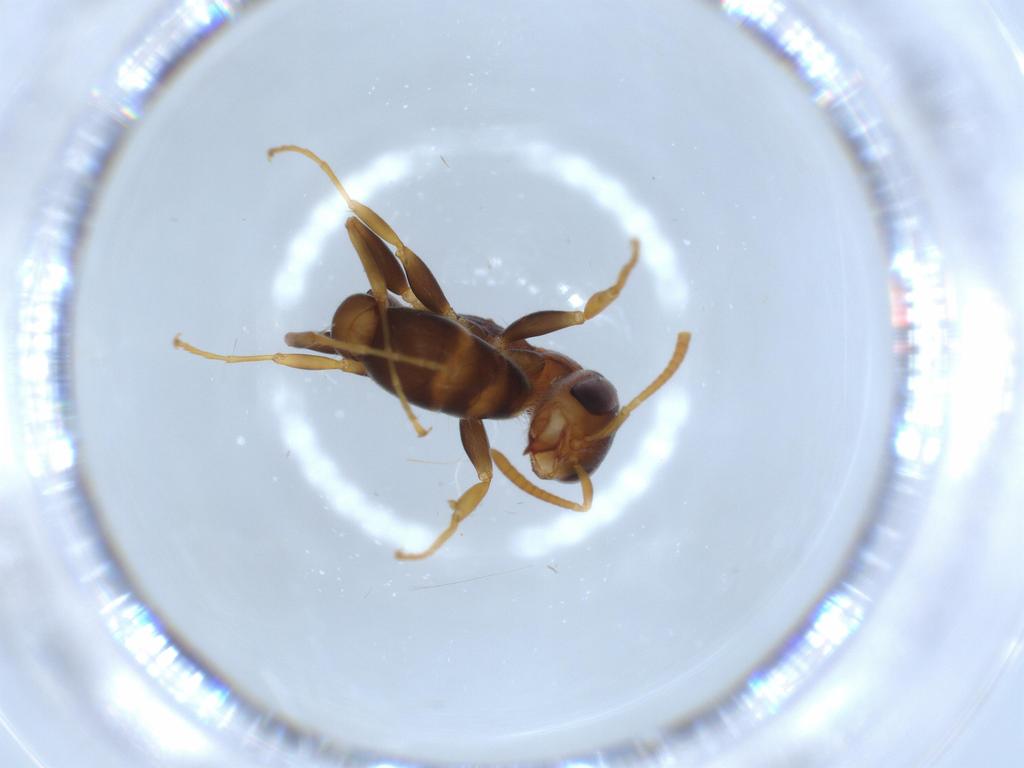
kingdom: Animalia
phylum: Arthropoda
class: Insecta
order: Hymenoptera
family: Formicidae
